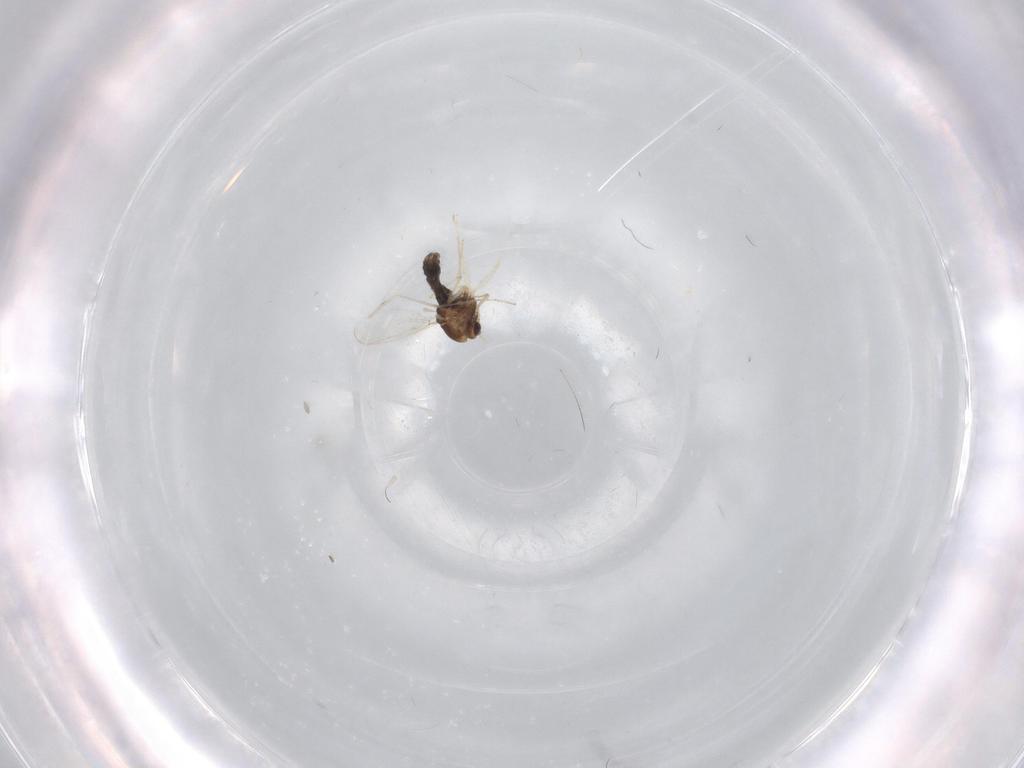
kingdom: Animalia
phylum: Arthropoda
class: Insecta
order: Diptera
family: Chironomidae
